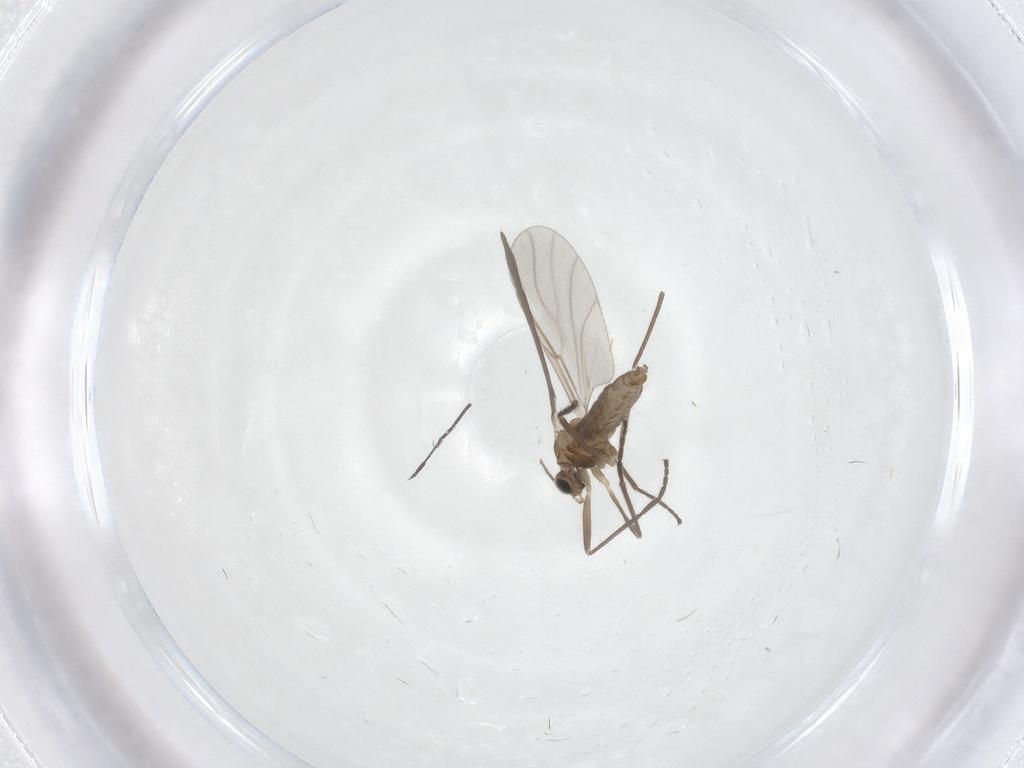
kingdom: Animalia
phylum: Arthropoda
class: Insecta
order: Diptera
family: Cecidomyiidae
